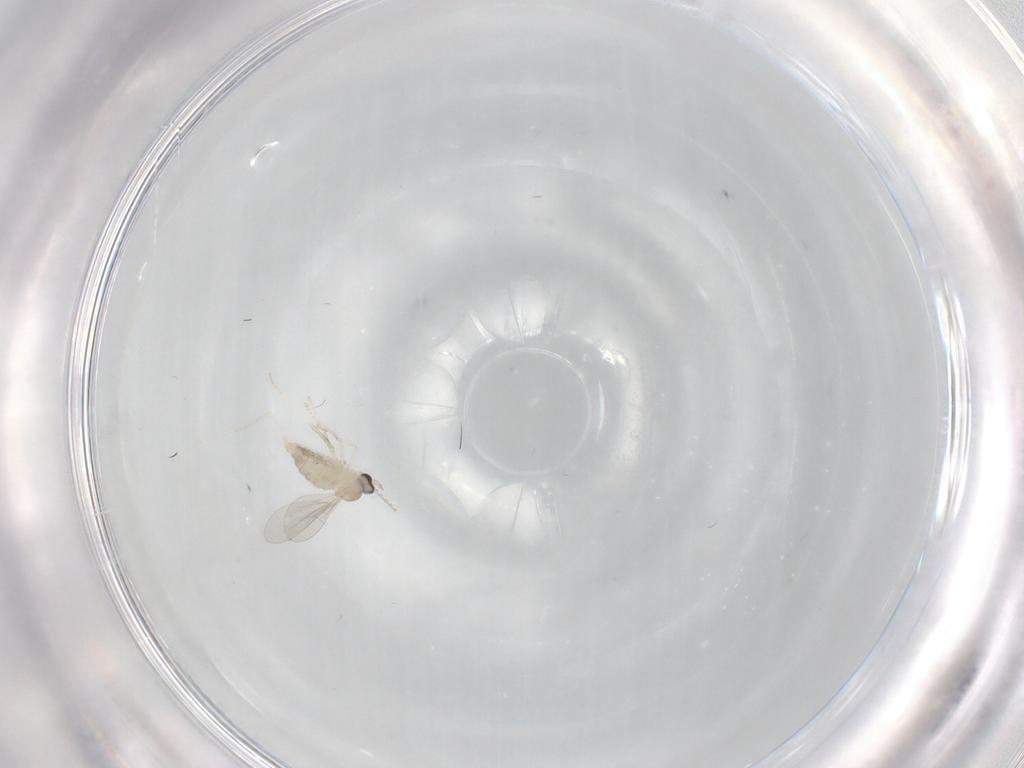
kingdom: Animalia
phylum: Arthropoda
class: Insecta
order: Diptera
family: Cecidomyiidae
